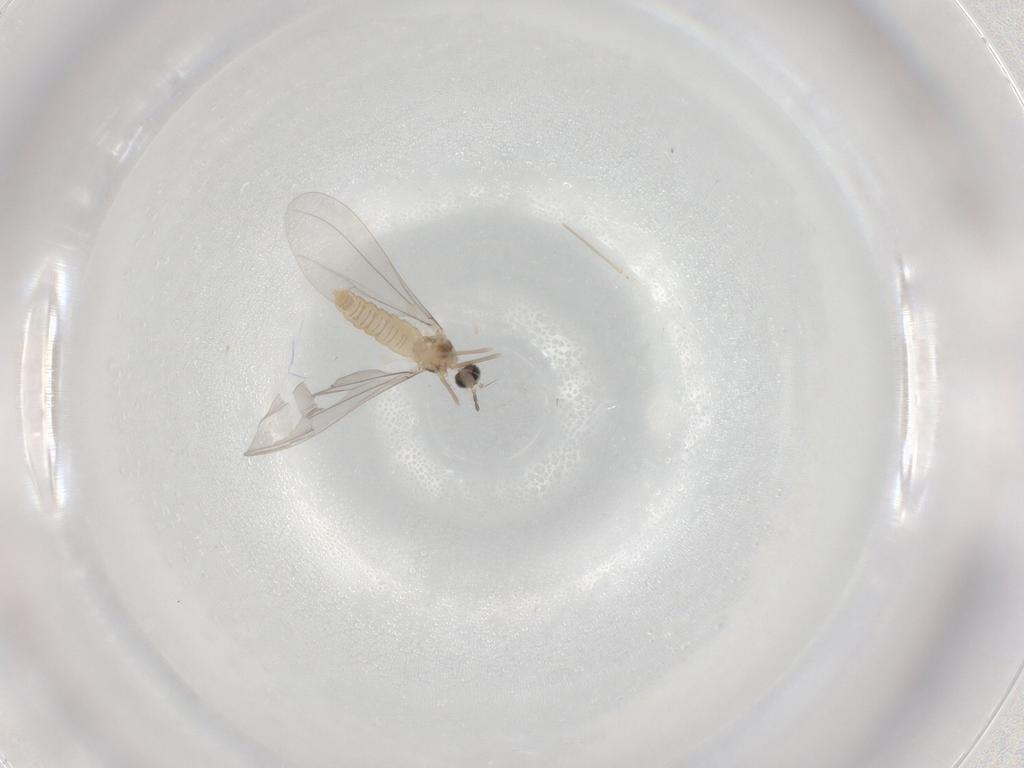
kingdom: Animalia
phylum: Arthropoda
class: Insecta
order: Diptera
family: Cecidomyiidae
